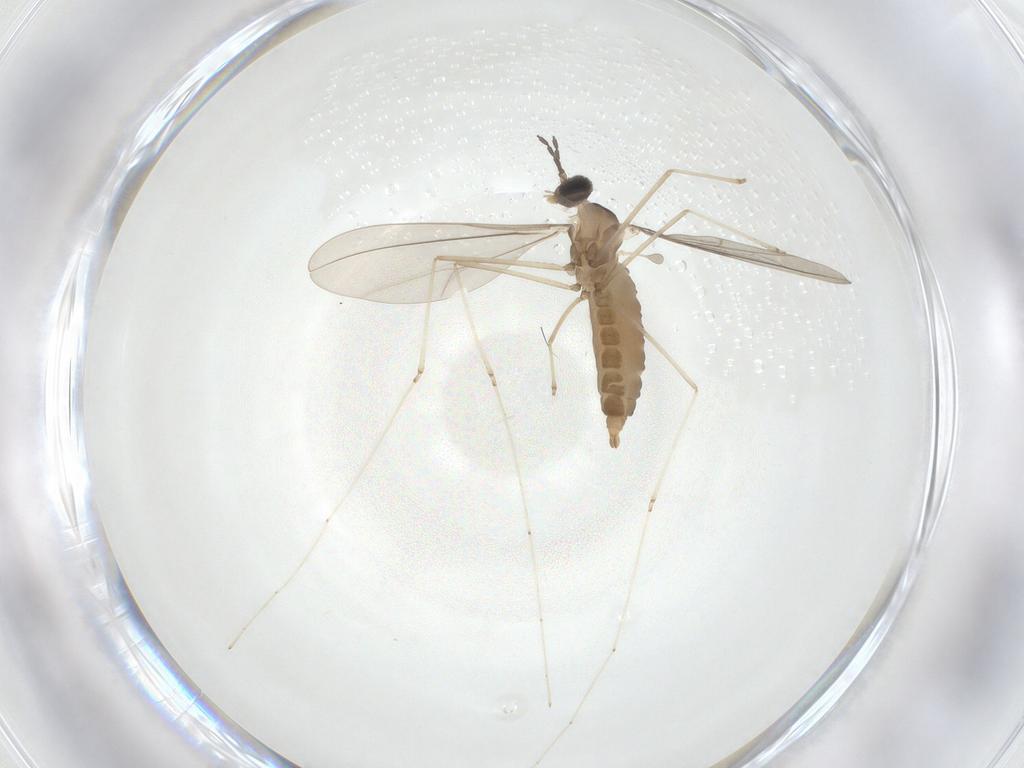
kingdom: Animalia
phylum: Arthropoda
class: Insecta
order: Diptera
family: Cecidomyiidae
